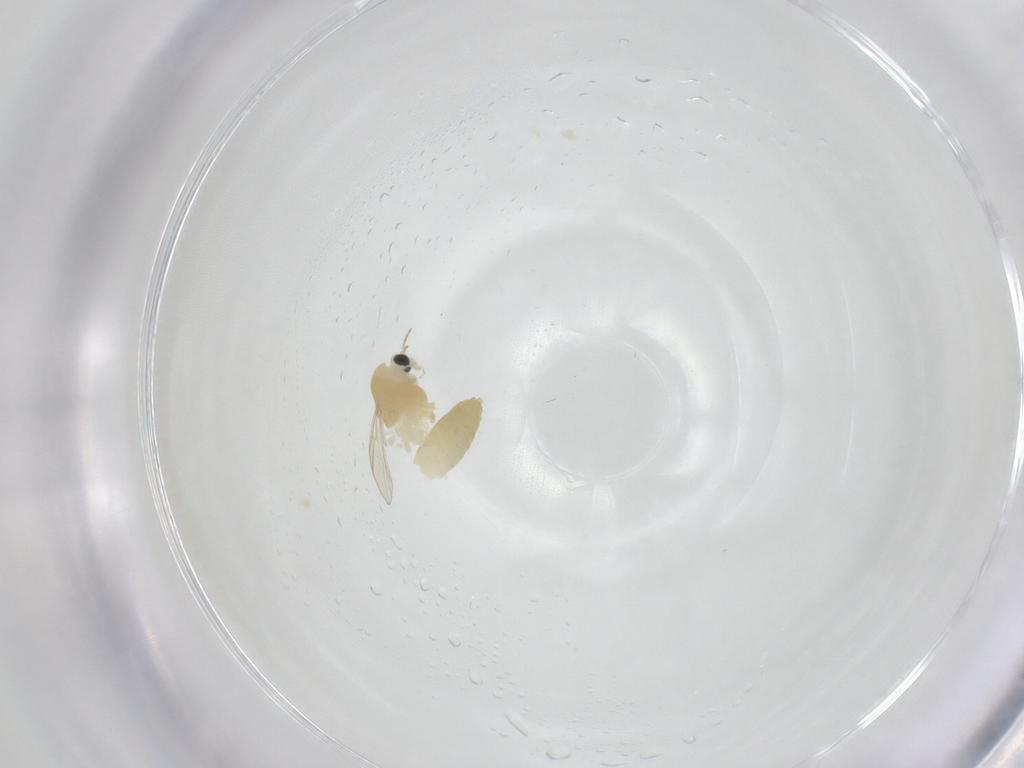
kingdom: Animalia
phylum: Arthropoda
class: Insecta
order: Diptera
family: Chironomidae
